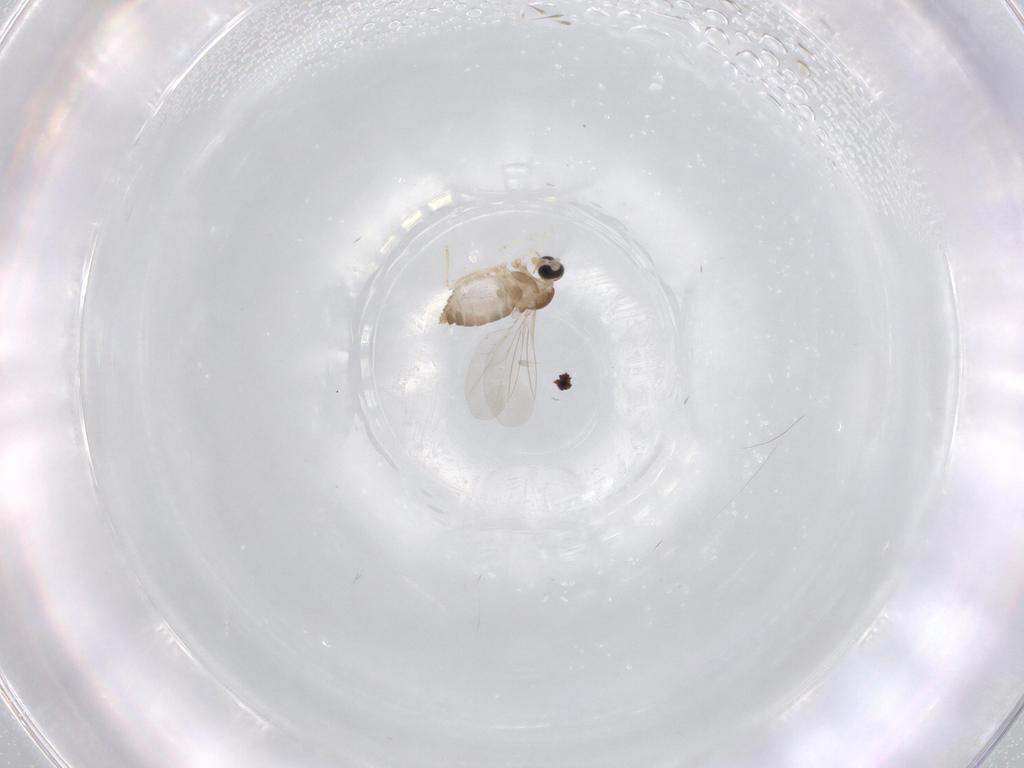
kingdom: Animalia
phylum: Arthropoda
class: Insecta
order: Diptera
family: Cecidomyiidae
